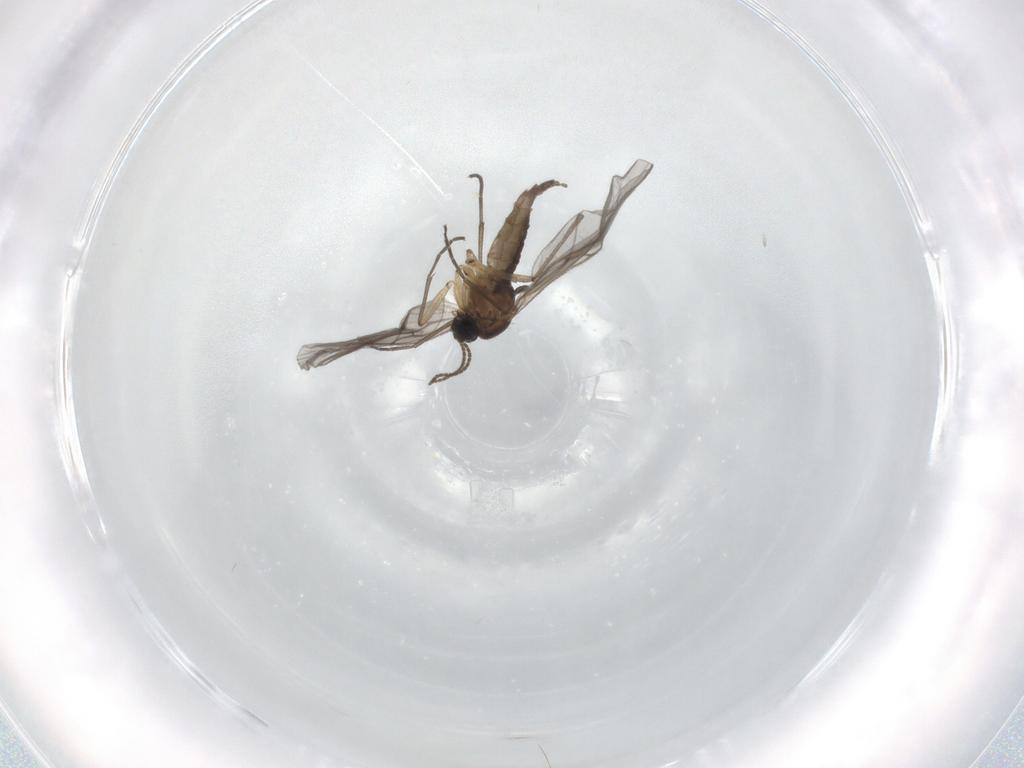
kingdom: Animalia
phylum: Arthropoda
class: Insecta
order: Diptera
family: Sciaridae
